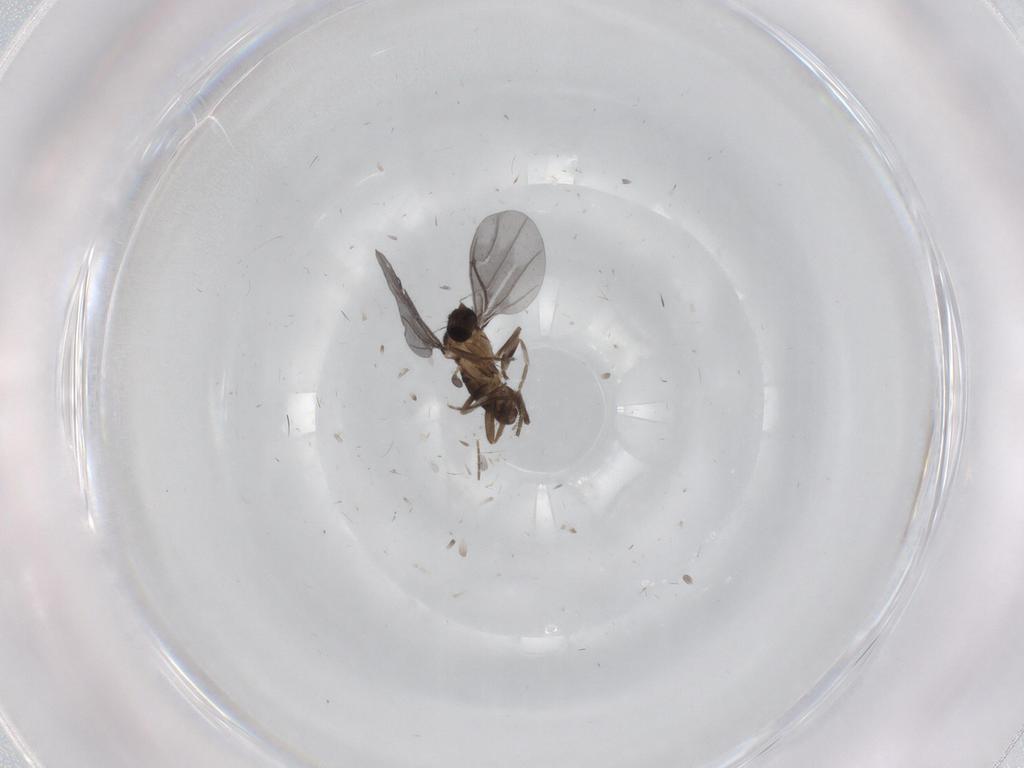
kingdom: Animalia
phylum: Arthropoda
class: Insecta
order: Diptera
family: Phoridae
